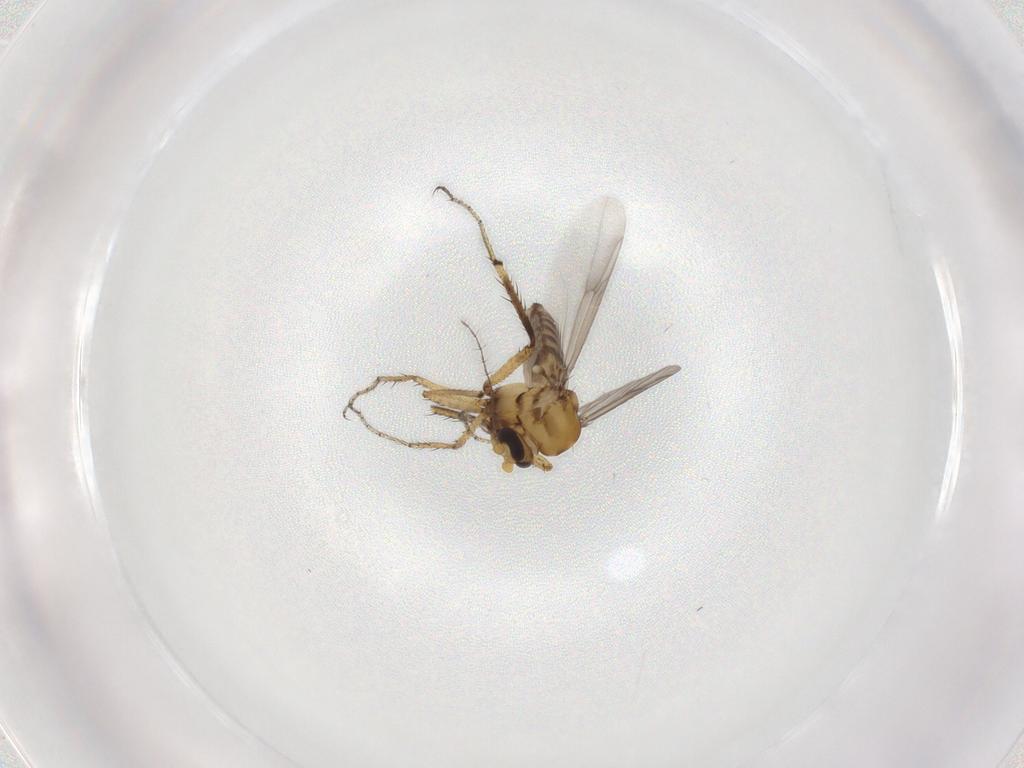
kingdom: Animalia
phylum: Arthropoda
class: Insecta
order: Diptera
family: Ceratopogonidae
